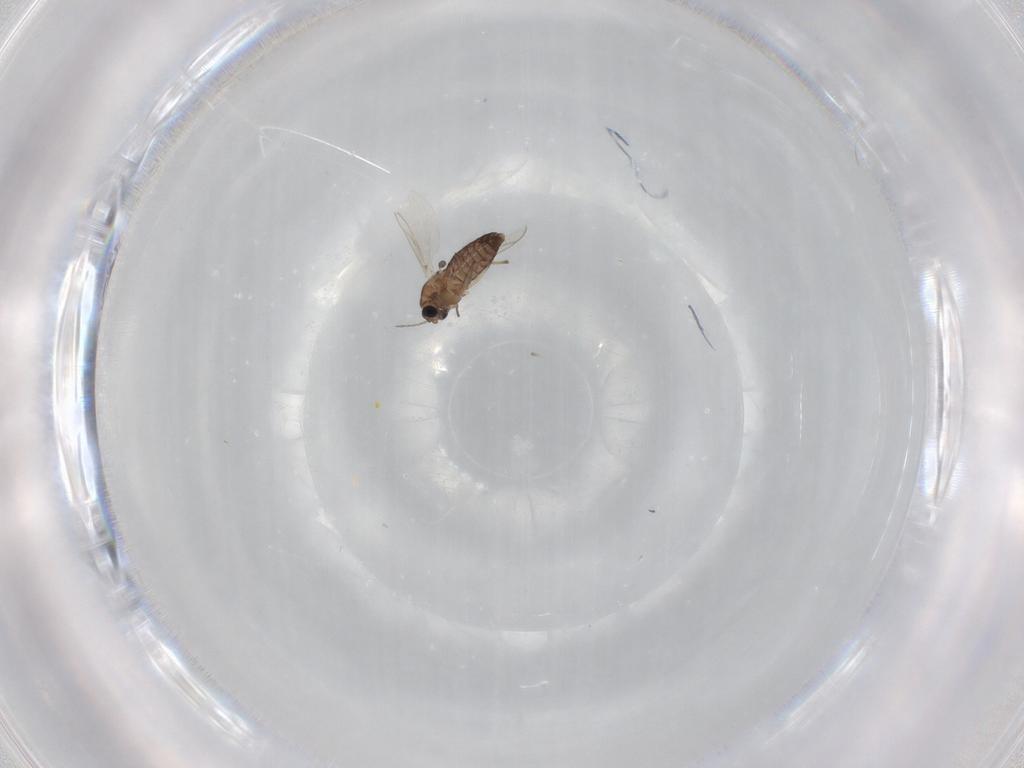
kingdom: Animalia
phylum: Arthropoda
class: Insecta
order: Diptera
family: Chironomidae
